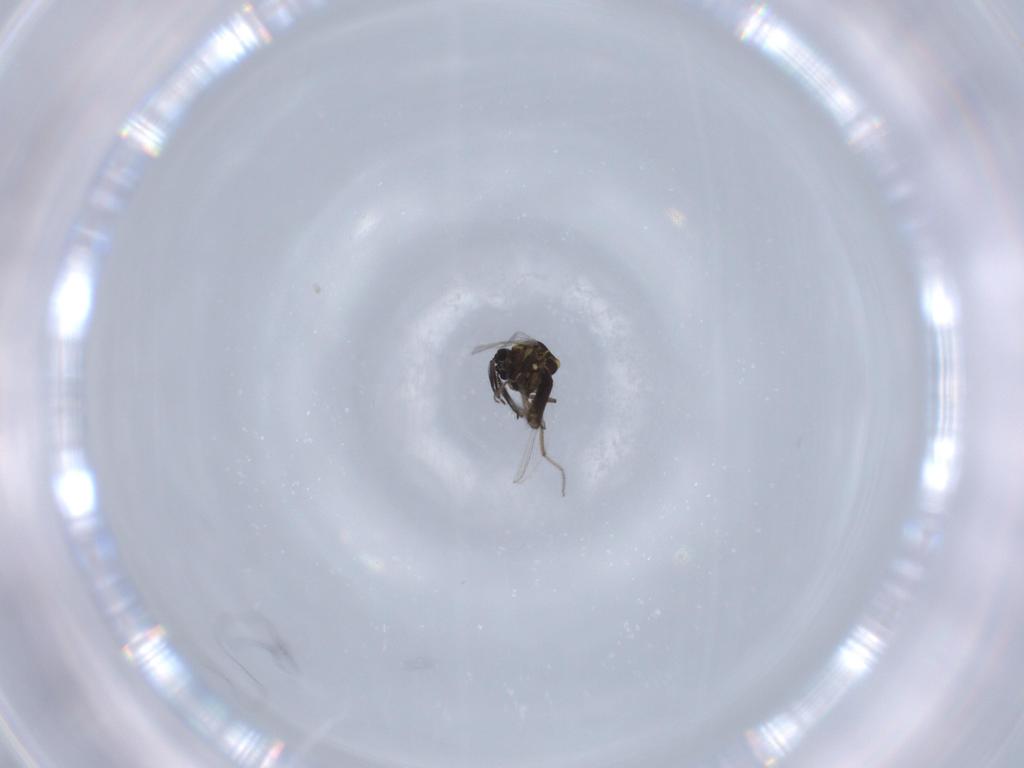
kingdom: Animalia
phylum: Arthropoda
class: Insecta
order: Diptera
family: Ceratopogonidae
